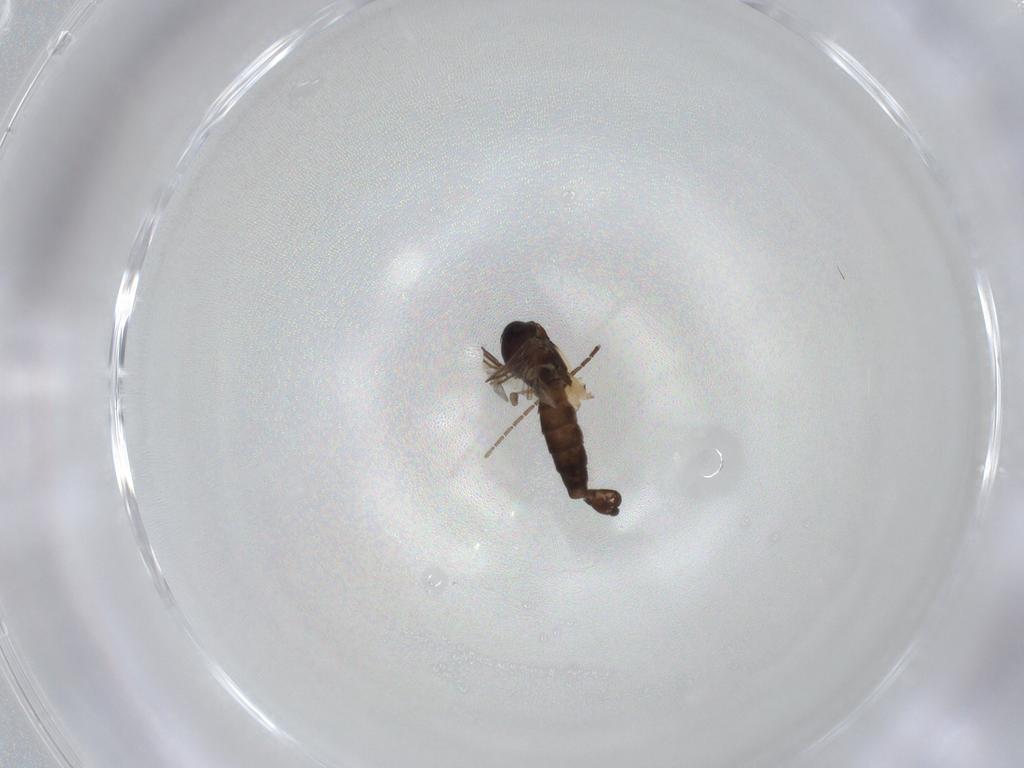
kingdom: Animalia
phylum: Arthropoda
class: Insecta
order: Diptera
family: Sciaridae
